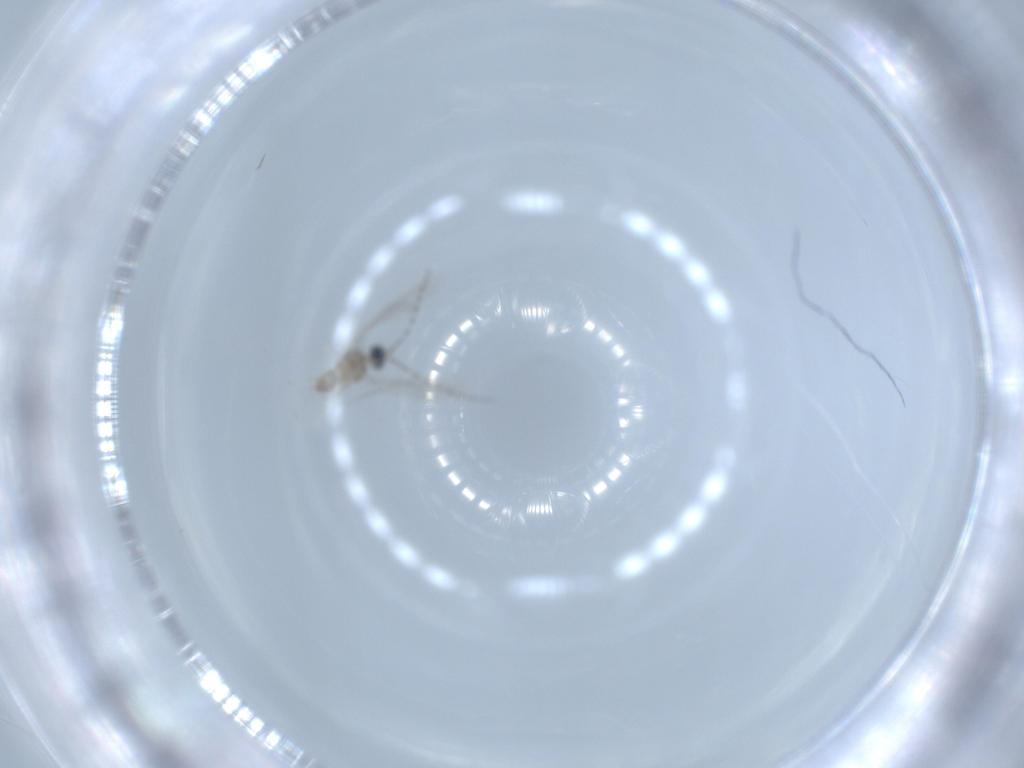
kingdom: Animalia
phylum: Arthropoda
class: Insecta
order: Diptera
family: Cecidomyiidae
